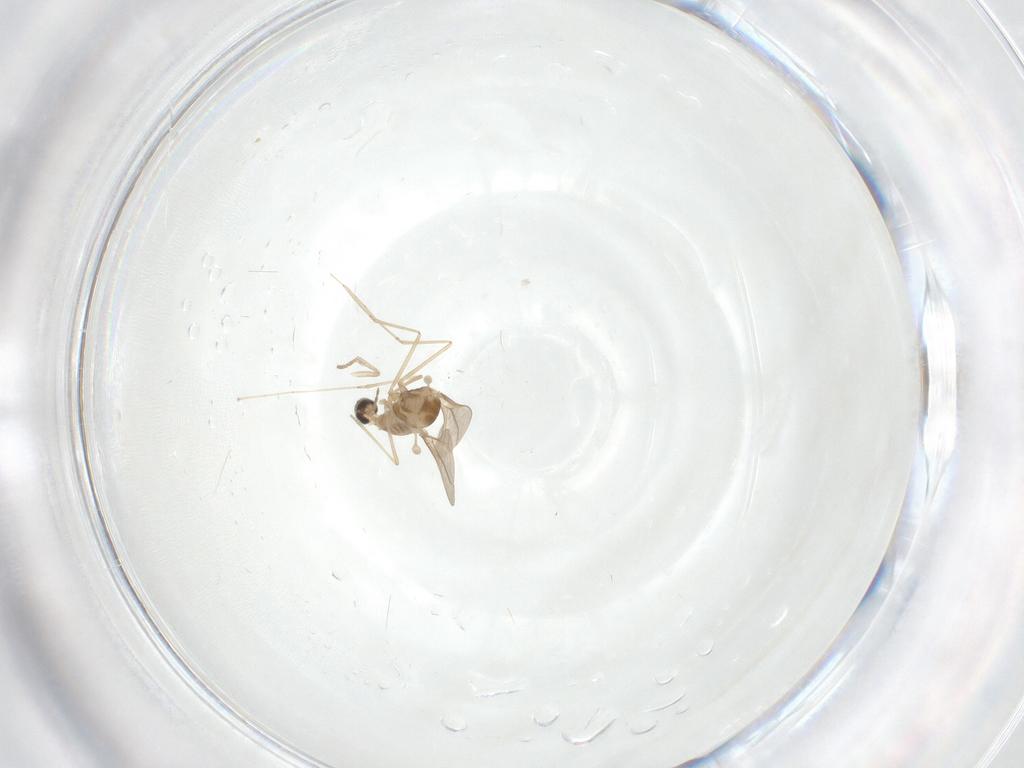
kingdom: Animalia
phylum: Arthropoda
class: Insecta
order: Diptera
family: Cecidomyiidae
